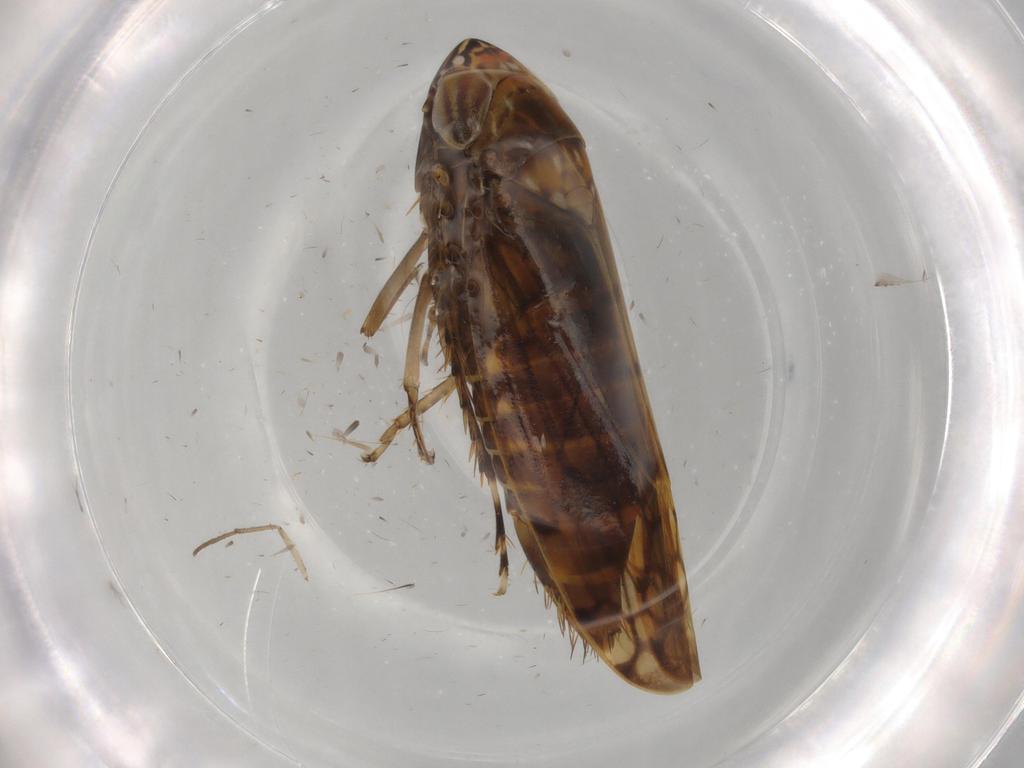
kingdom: Animalia
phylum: Arthropoda
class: Insecta
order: Hemiptera
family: Cicadellidae
